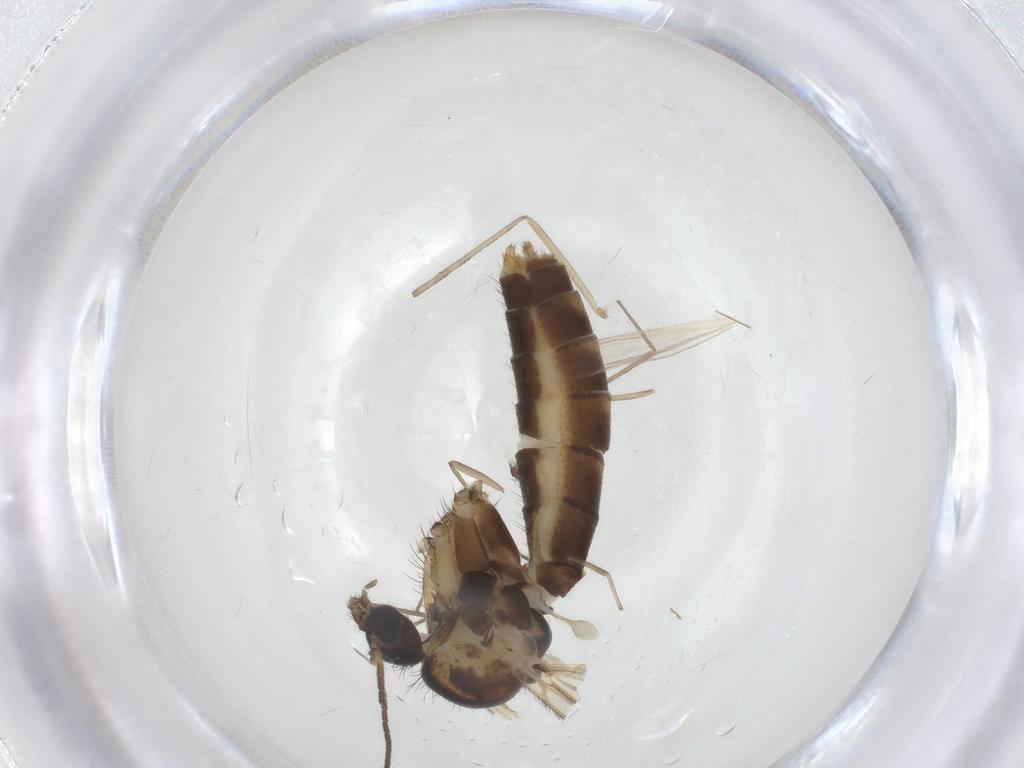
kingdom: Animalia
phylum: Arthropoda
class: Insecta
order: Diptera
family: Mycetophilidae
